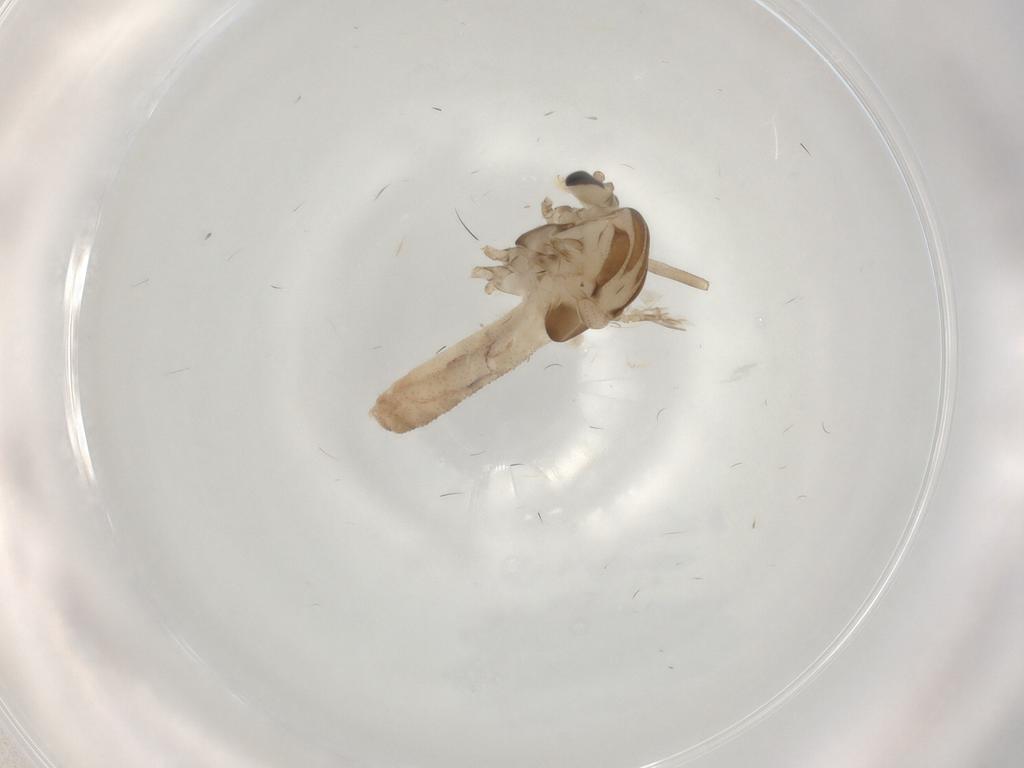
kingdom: Animalia
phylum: Arthropoda
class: Insecta
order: Diptera
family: Chironomidae
